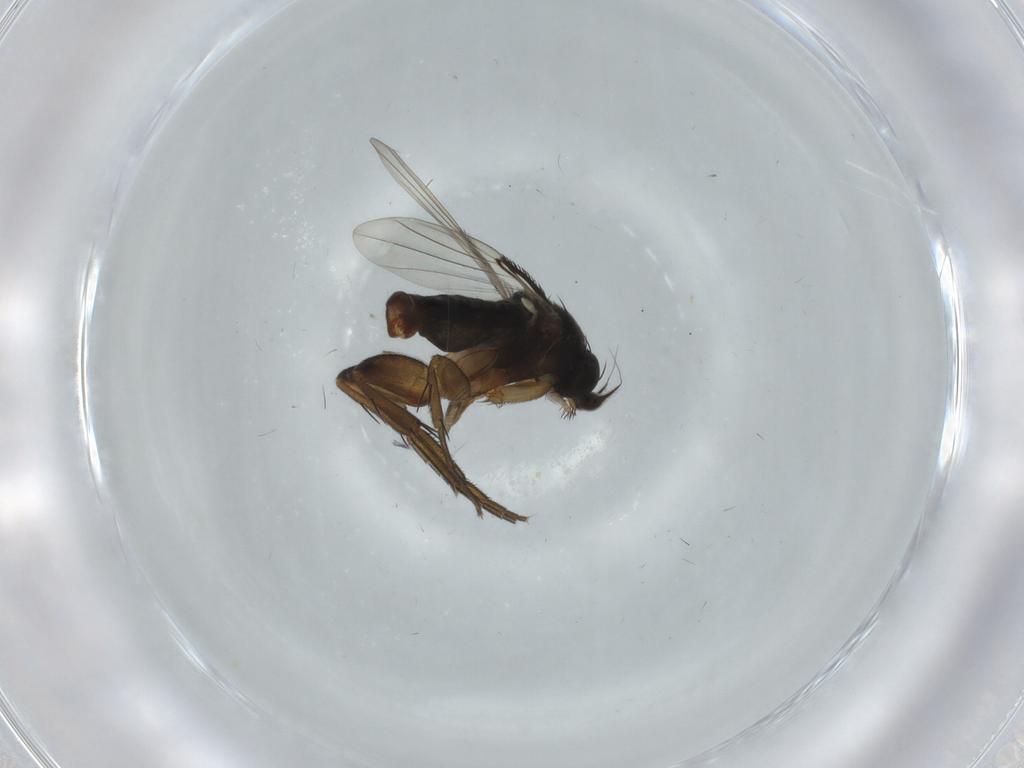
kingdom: Animalia
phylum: Arthropoda
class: Insecta
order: Diptera
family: Phoridae
